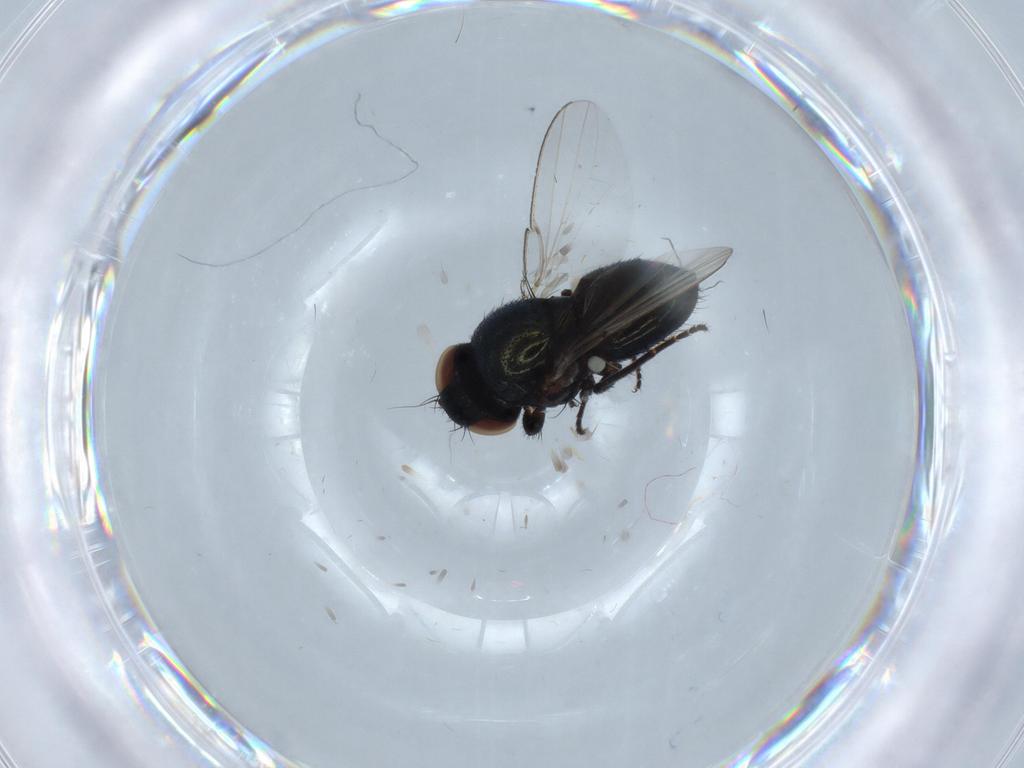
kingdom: Animalia
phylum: Arthropoda
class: Insecta
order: Diptera
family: Milichiidae
